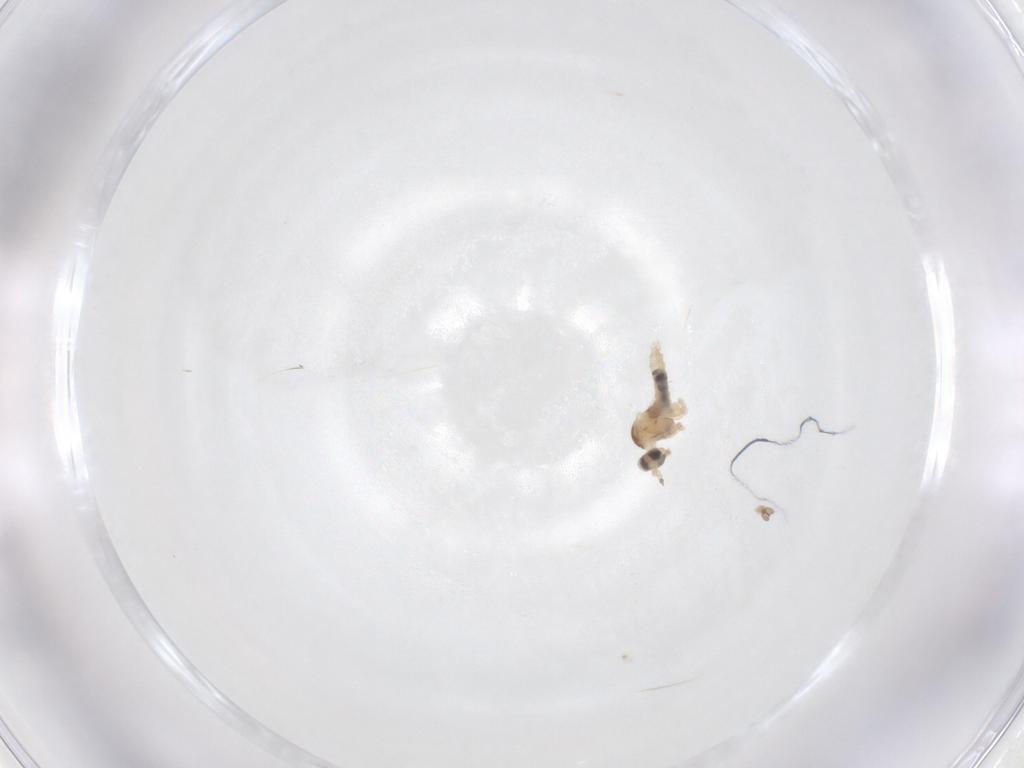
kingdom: Animalia
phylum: Arthropoda
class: Insecta
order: Diptera
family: Cecidomyiidae
